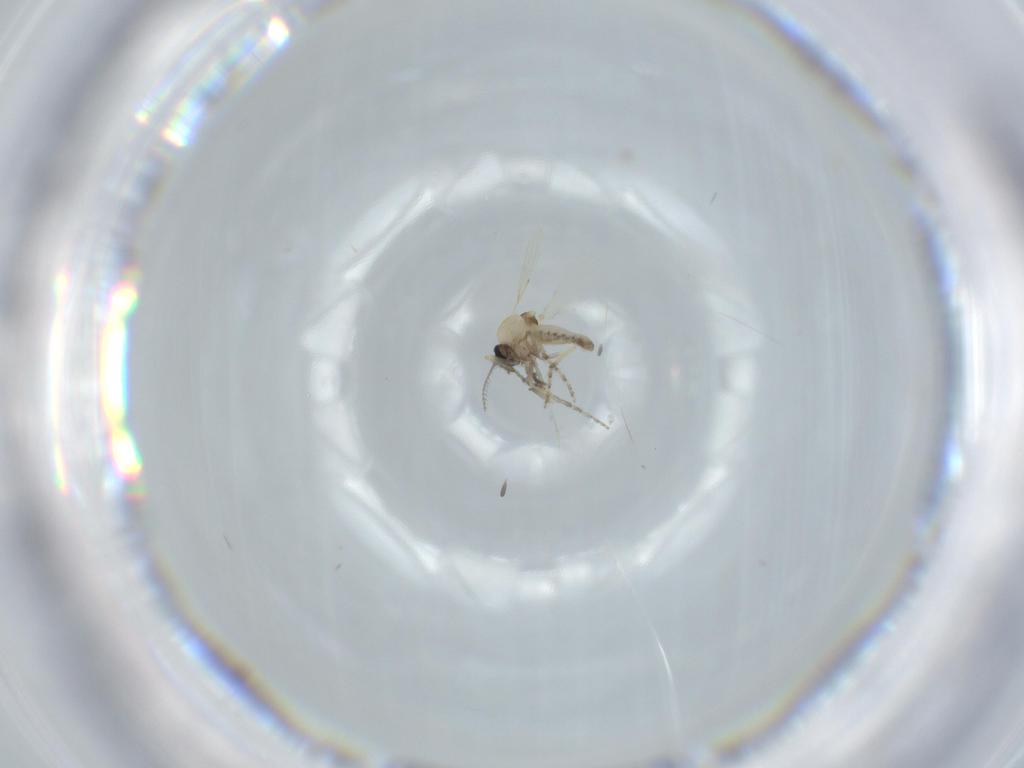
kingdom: Animalia
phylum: Arthropoda
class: Insecta
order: Diptera
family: Ceratopogonidae
